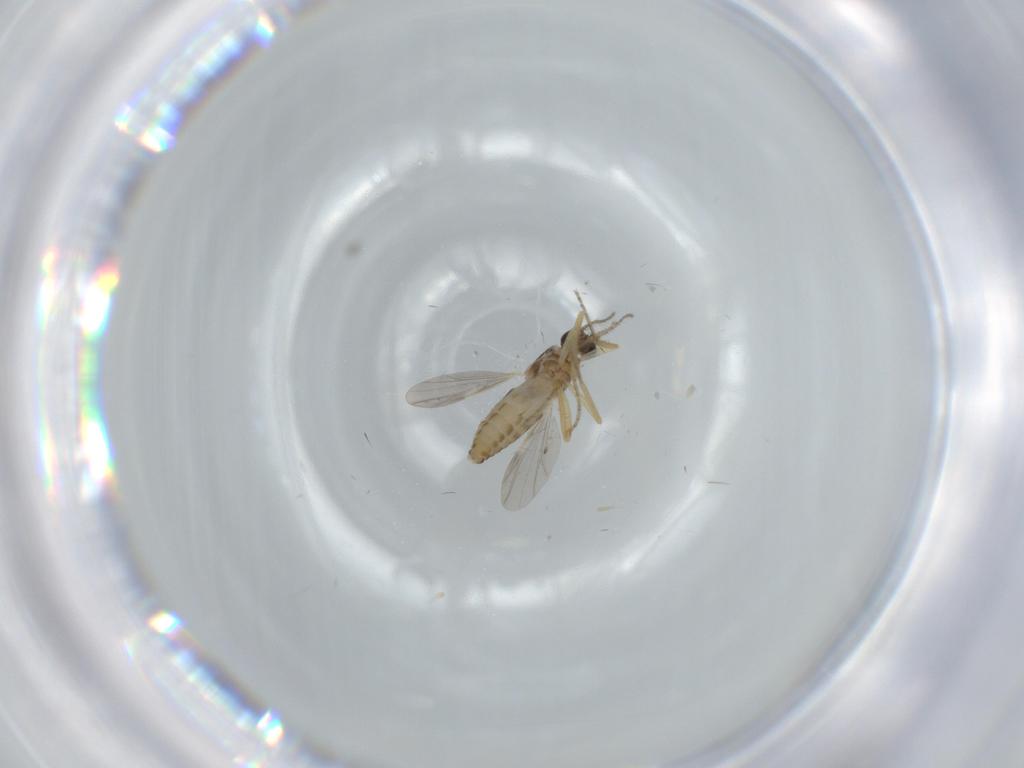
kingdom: Animalia
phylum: Arthropoda
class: Insecta
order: Diptera
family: Ceratopogonidae
